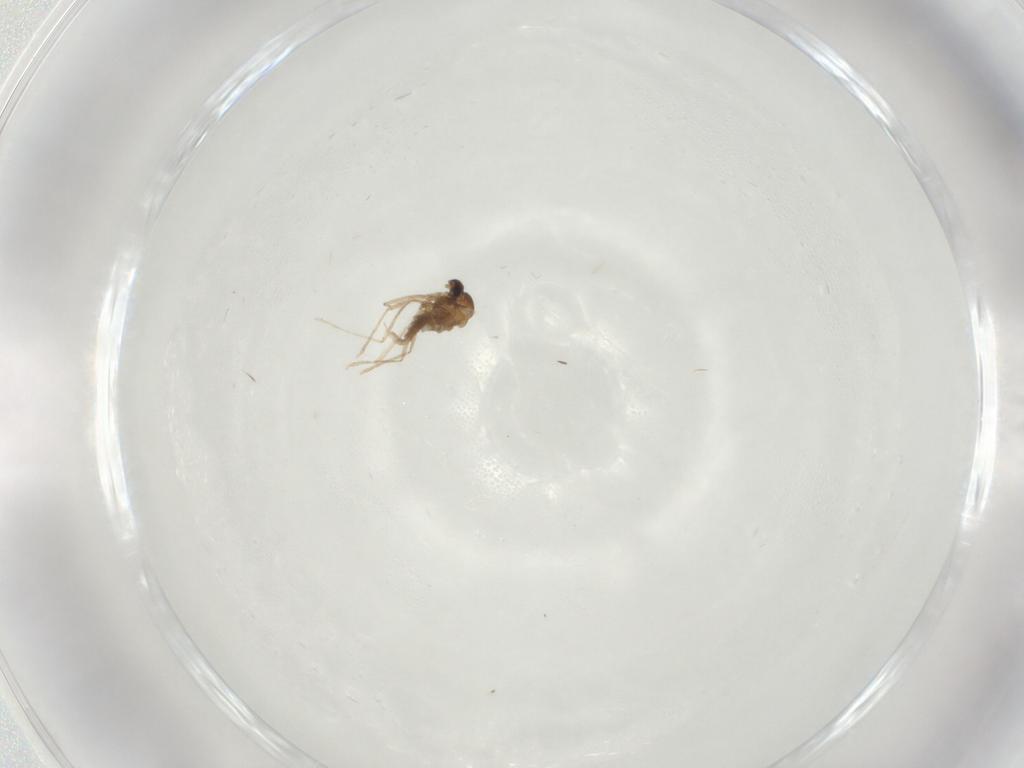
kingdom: Animalia
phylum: Arthropoda
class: Insecta
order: Diptera
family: Cecidomyiidae
